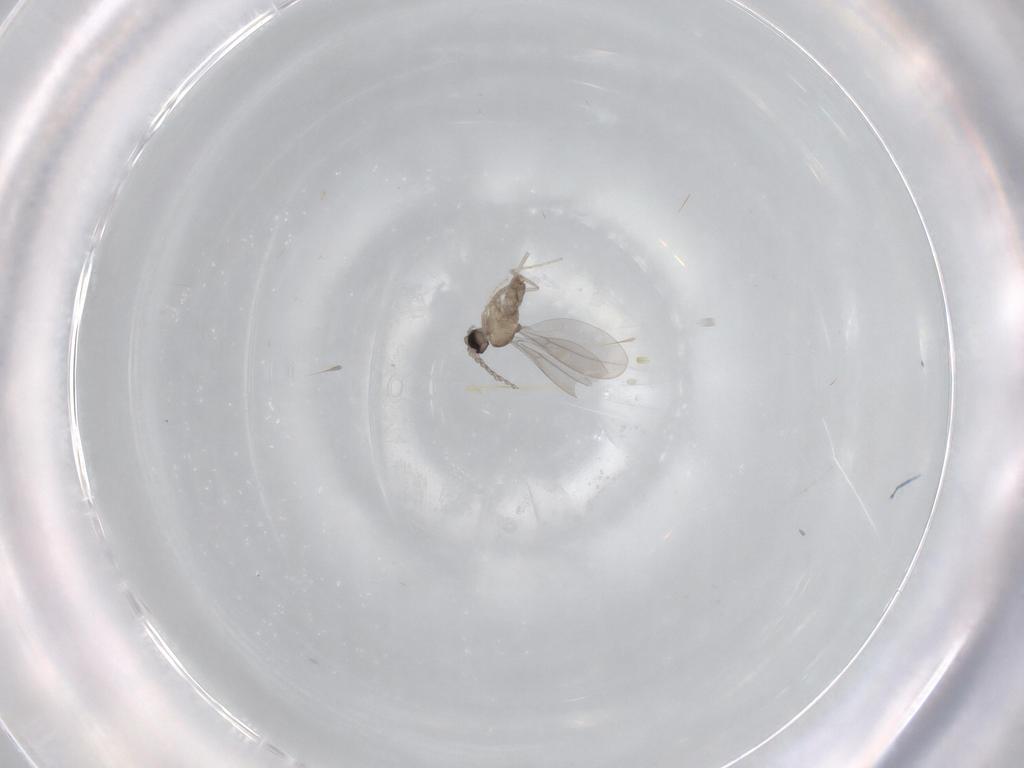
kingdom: Animalia
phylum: Arthropoda
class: Insecta
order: Diptera
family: Cecidomyiidae
